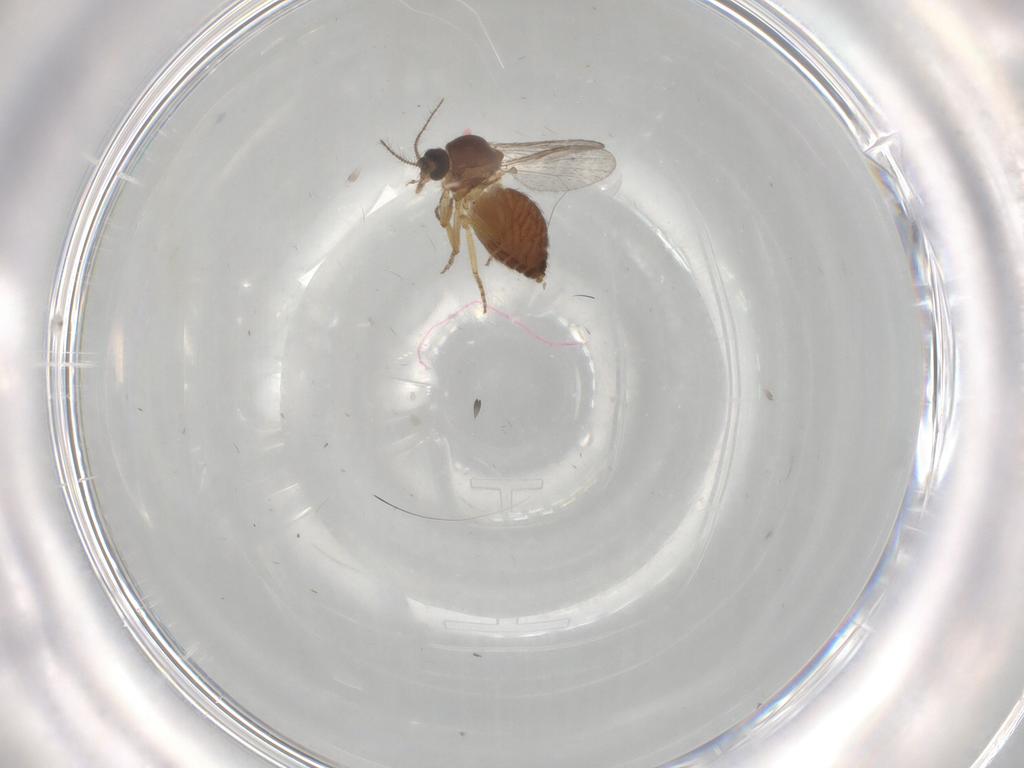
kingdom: Animalia
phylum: Arthropoda
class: Insecta
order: Diptera
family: Ceratopogonidae
